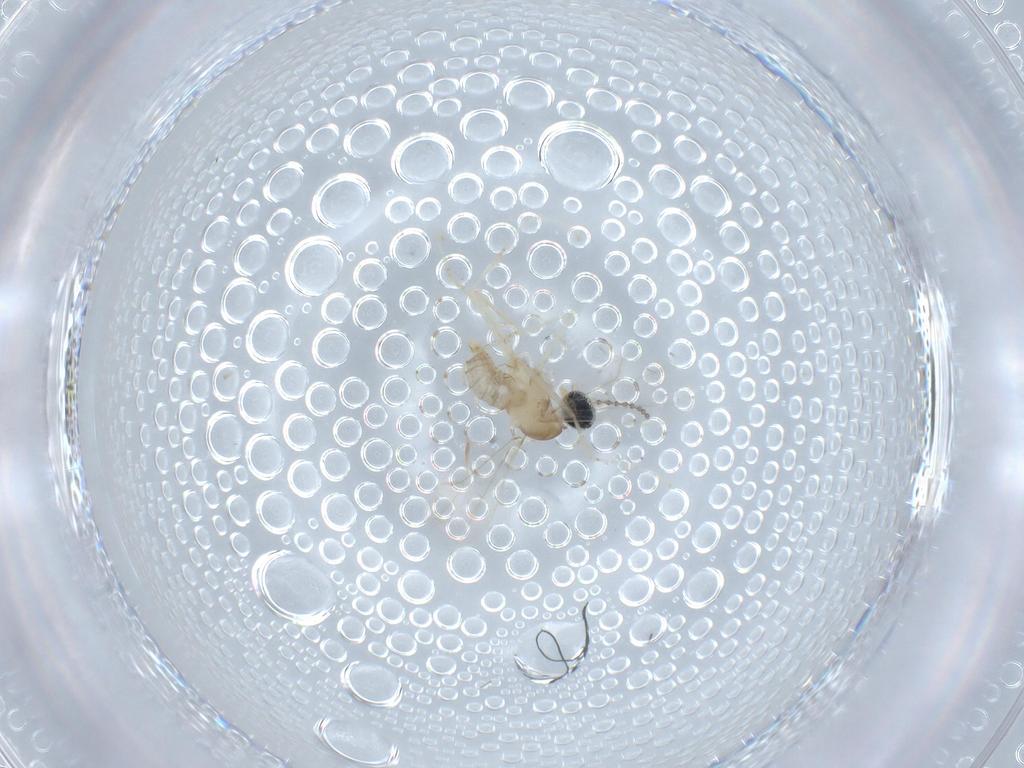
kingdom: Animalia
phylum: Arthropoda
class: Insecta
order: Diptera
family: Cecidomyiidae
